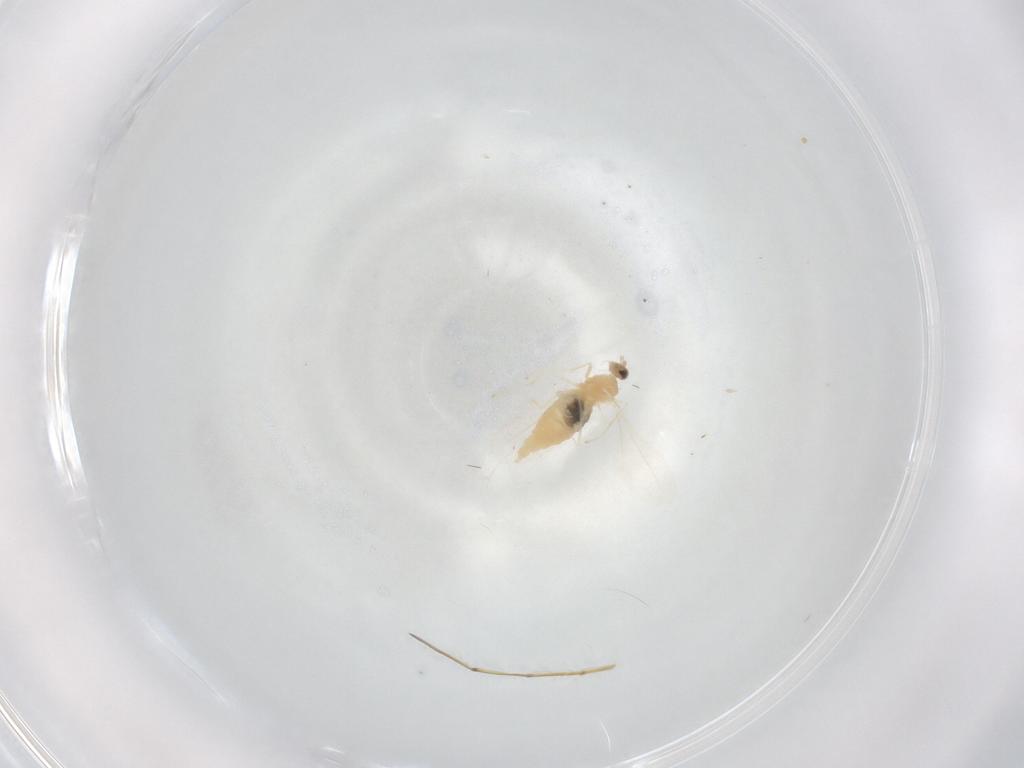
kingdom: Animalia
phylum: Arthropoda
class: Insecta
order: Diptera
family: Cecidomyiidae
